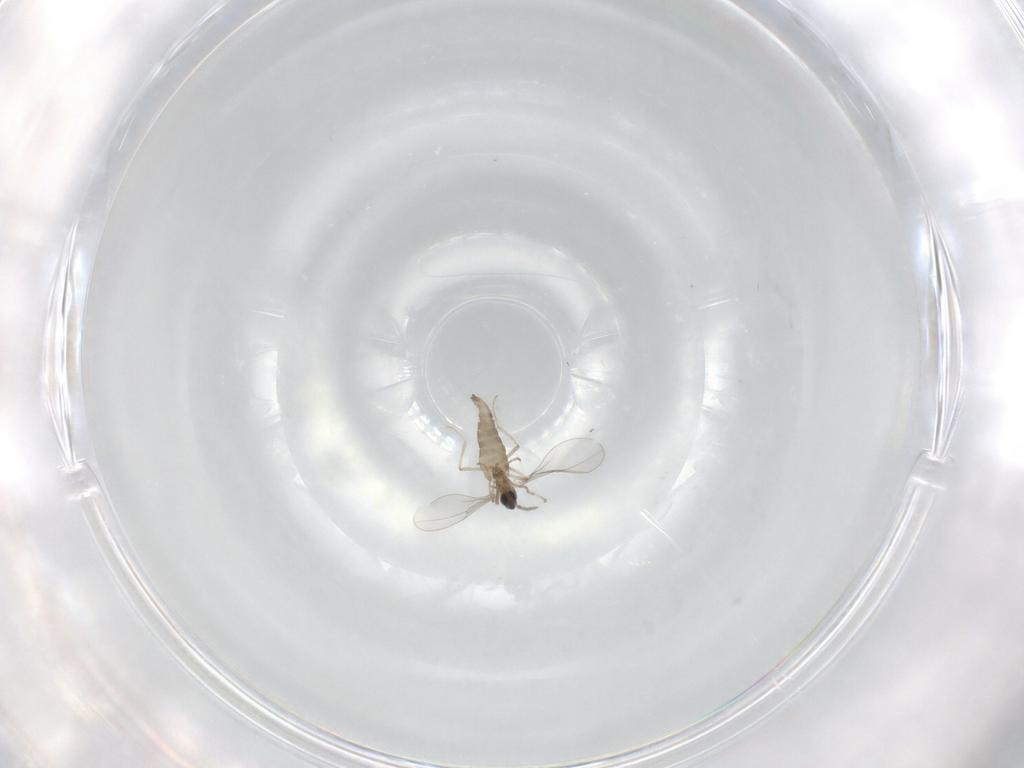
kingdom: Animalia
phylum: Arthropoda
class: Insecta
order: Diptera
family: Cecidomyiidae
